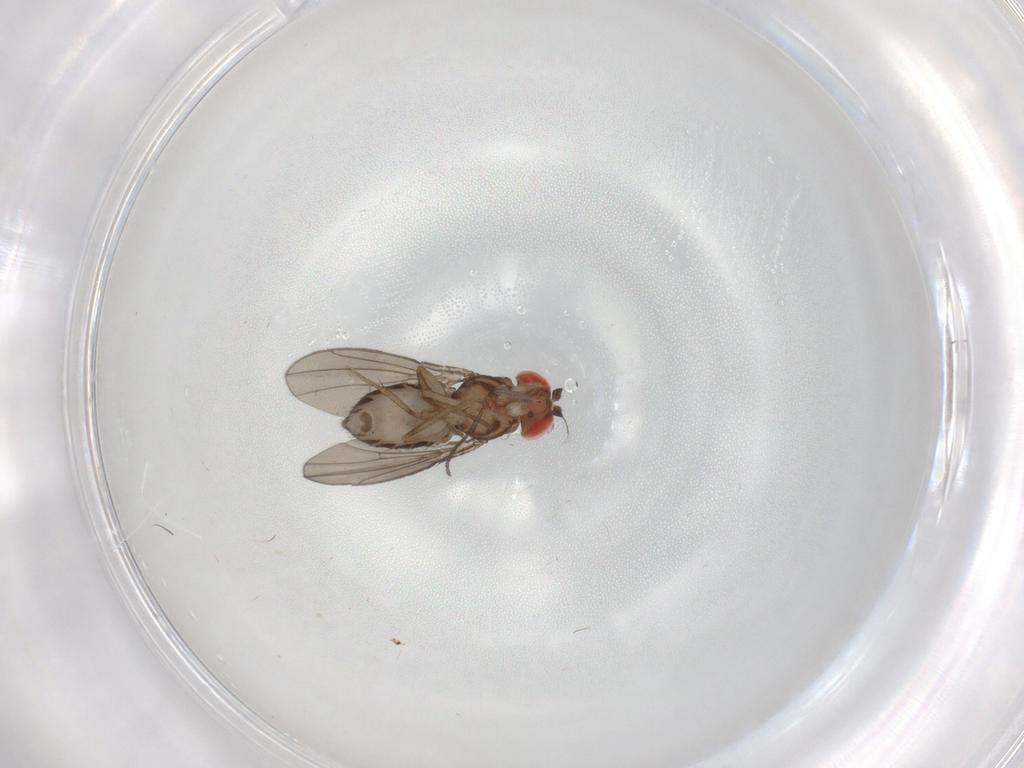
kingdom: Animalia
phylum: Arthropoda
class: Insecta
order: Diptera
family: Drosophilidae
